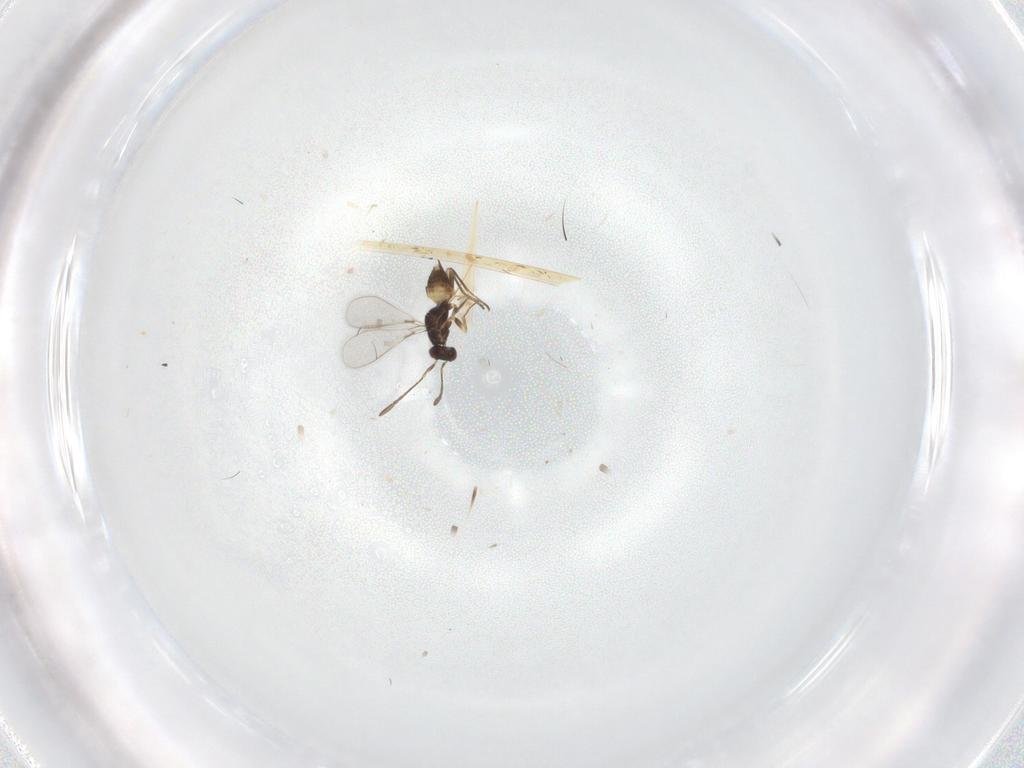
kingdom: Animalia
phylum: Arthropoda
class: Insecta
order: Hymenoptera
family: Mymaridae
